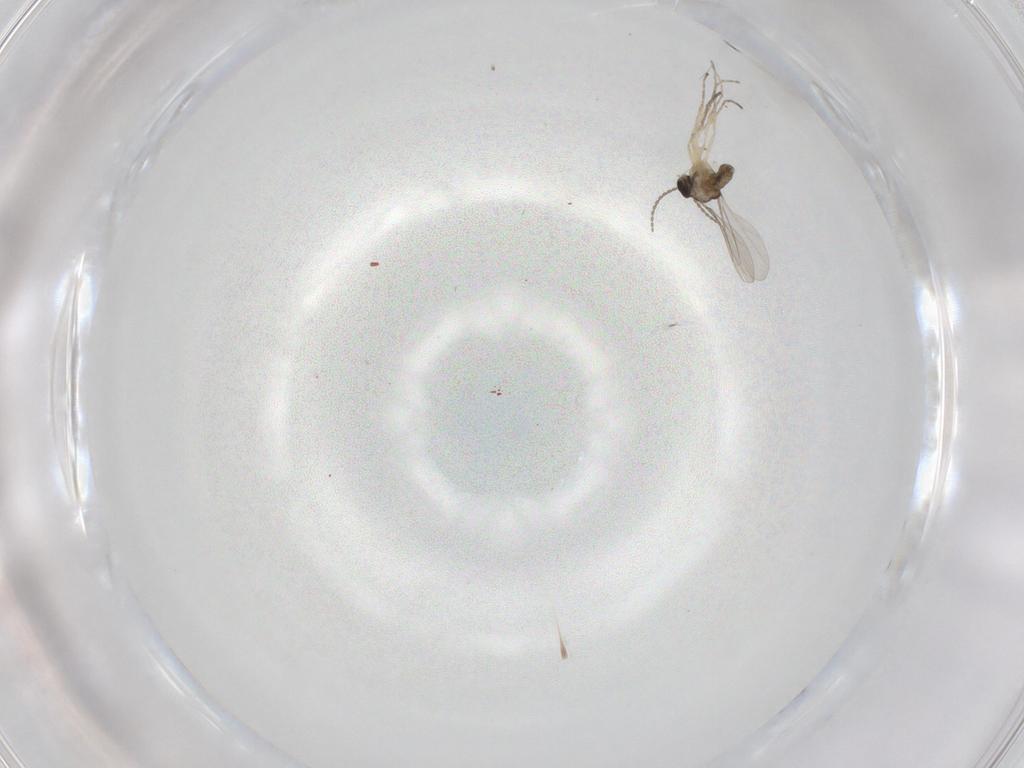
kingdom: Animalia
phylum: Arthropoda
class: Insecta
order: Diptera
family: Cecidomyiidae
